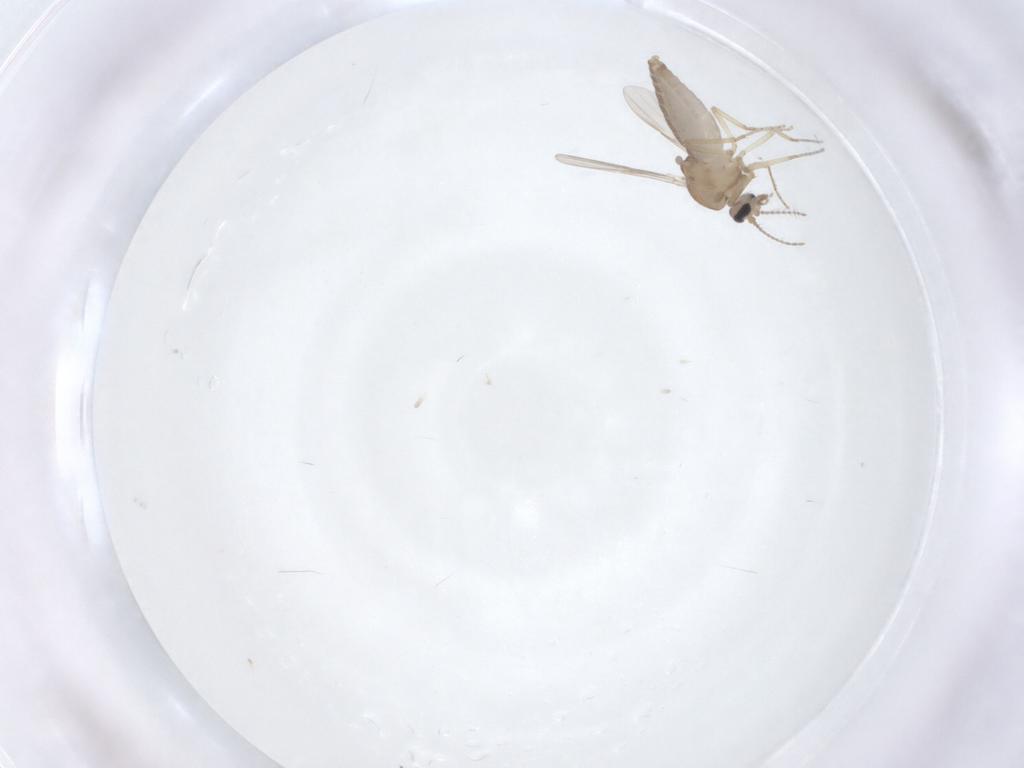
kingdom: Animalia
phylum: Arthropoda
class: Insecta
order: Diptera
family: Ceratopogonidae
